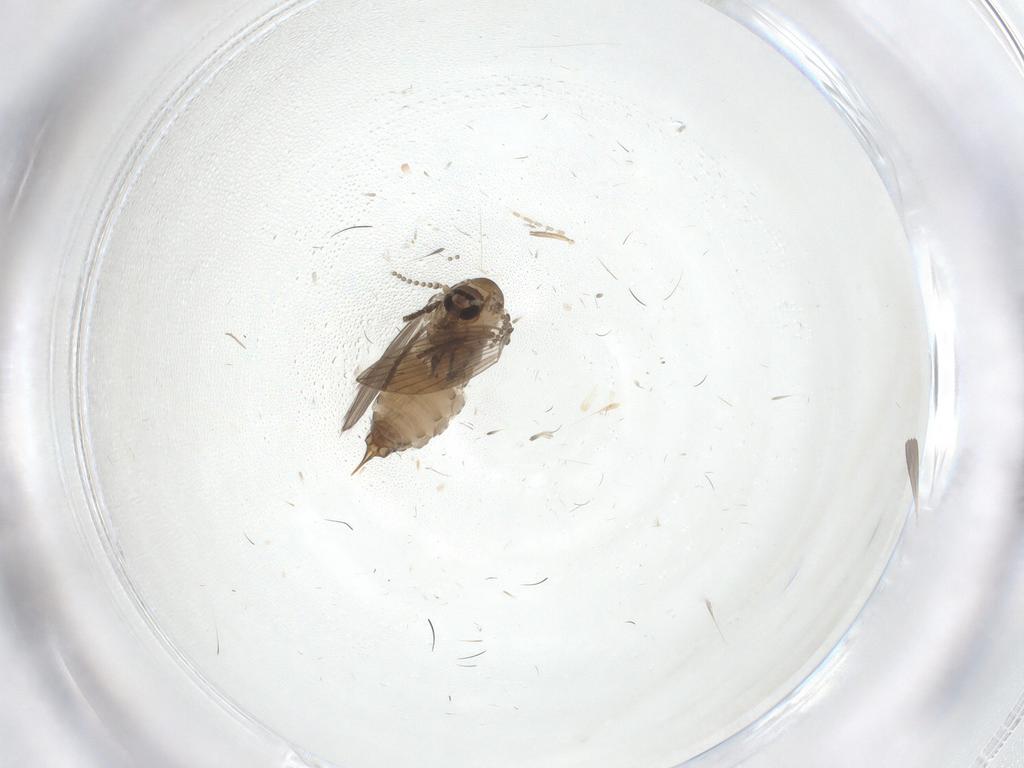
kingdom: Animalia
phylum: Arthropoda
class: Insecta
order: Diptera
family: Cecidomyiidae
